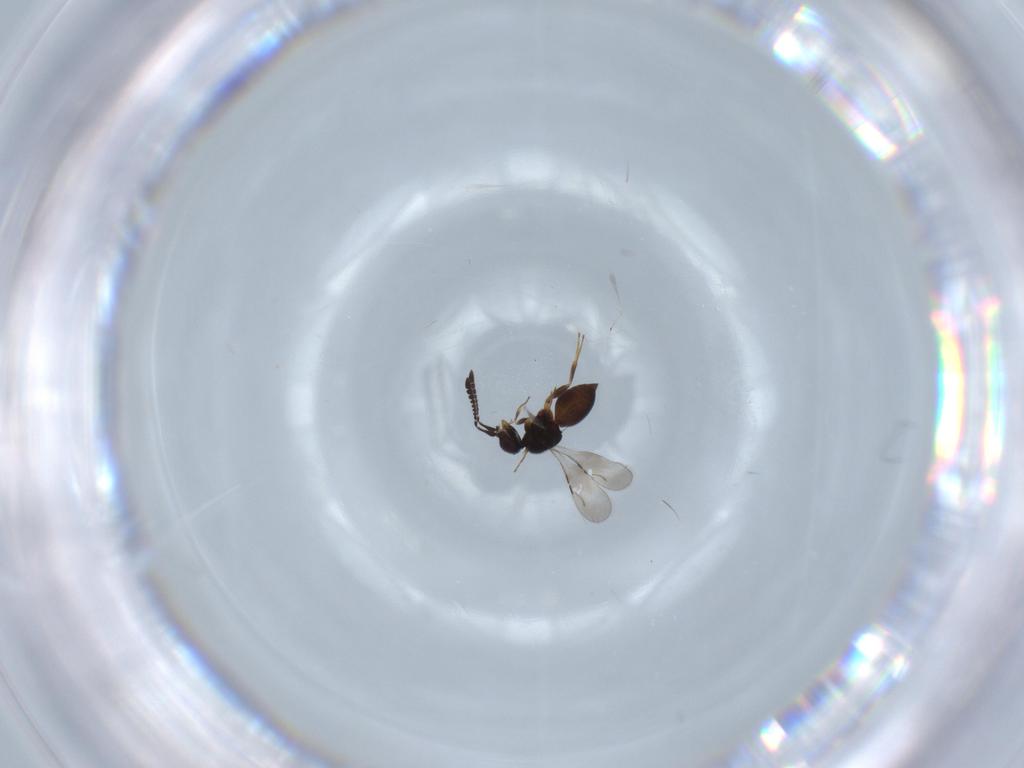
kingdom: Animalia
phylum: Arthropoda
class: Insecta
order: Hymenoptera
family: Ceraphronidae
